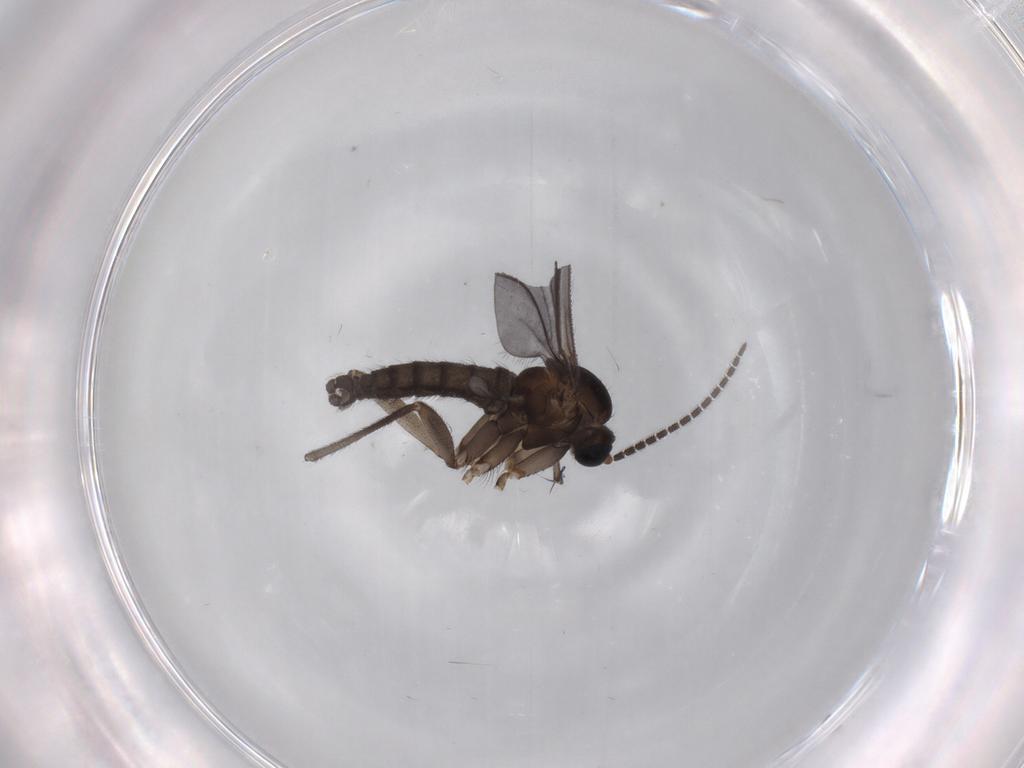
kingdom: Animalia
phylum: Arthropoda
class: Insecta
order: Diptera
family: Sciaridae
